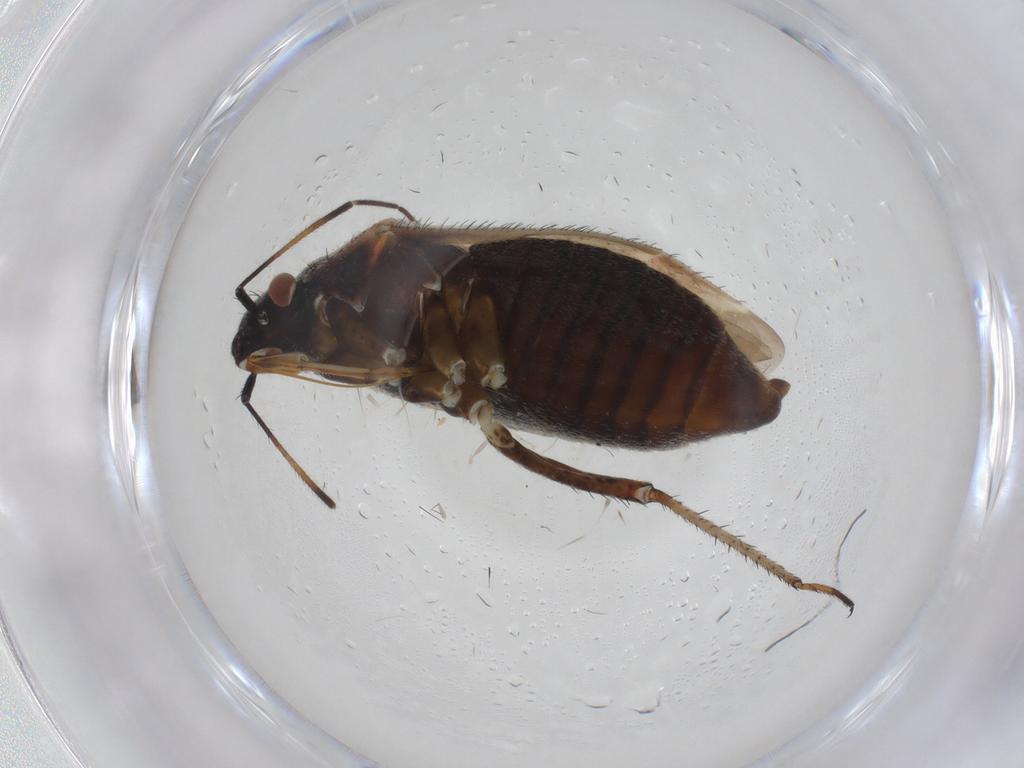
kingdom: Animalia
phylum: Arthropoda
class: Insecta
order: Hemiptera
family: Miridae
